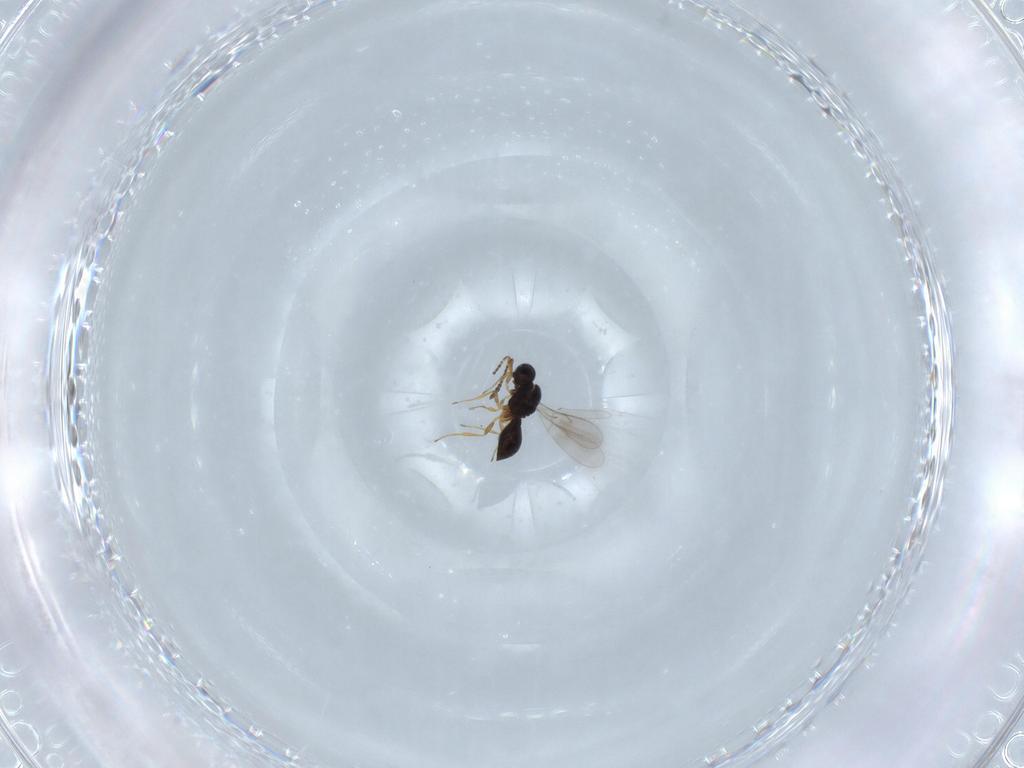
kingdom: Animalia
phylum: Arthropoda
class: Insecta
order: Hymenoptera
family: Scelionidae
